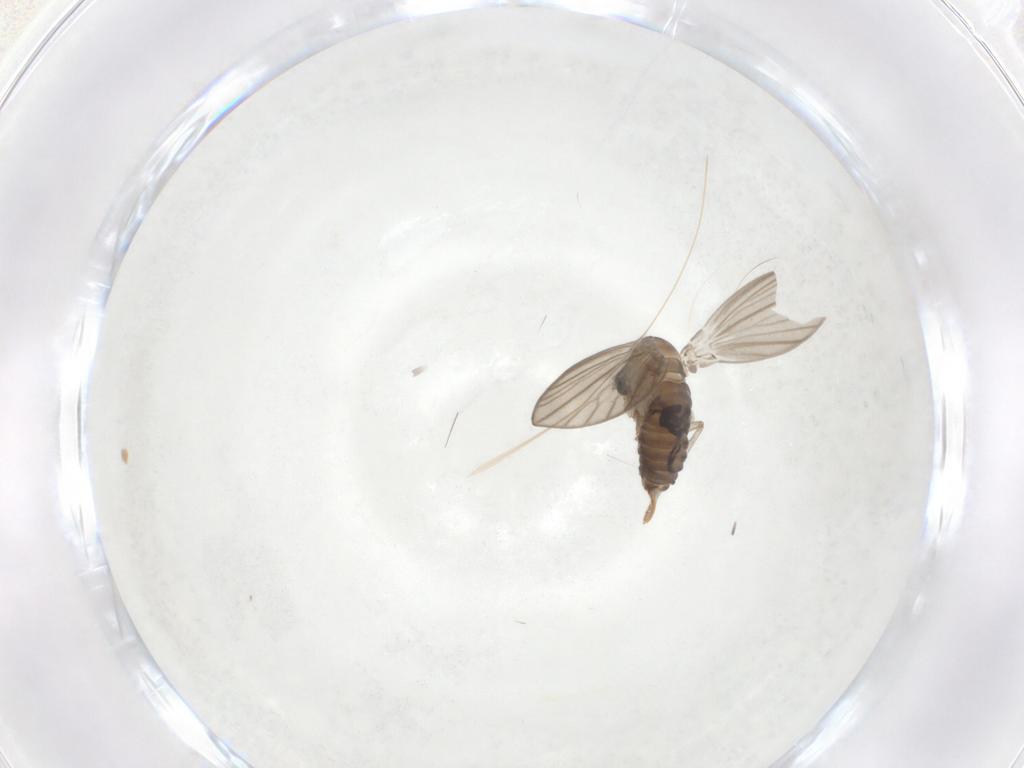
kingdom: Animalia
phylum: Arthropoda
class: Insecta
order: Diptera
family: Psychodidae
